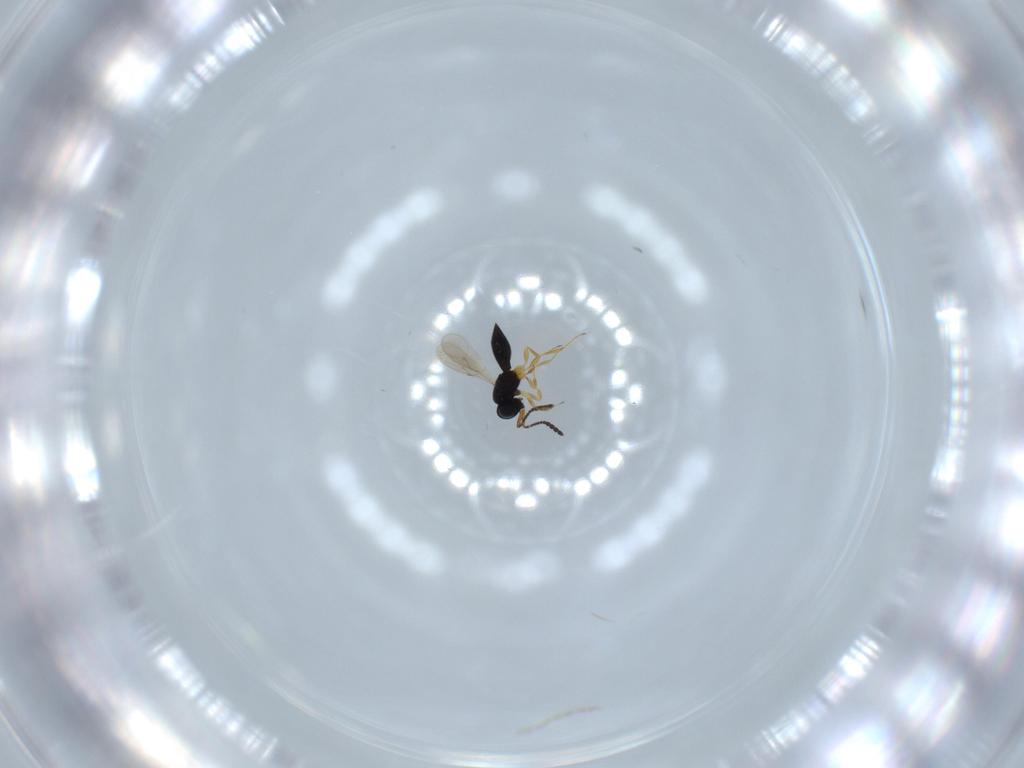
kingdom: Animalia
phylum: Arthropoda
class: Insecta
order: Hymenoptera
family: Scelionidae
